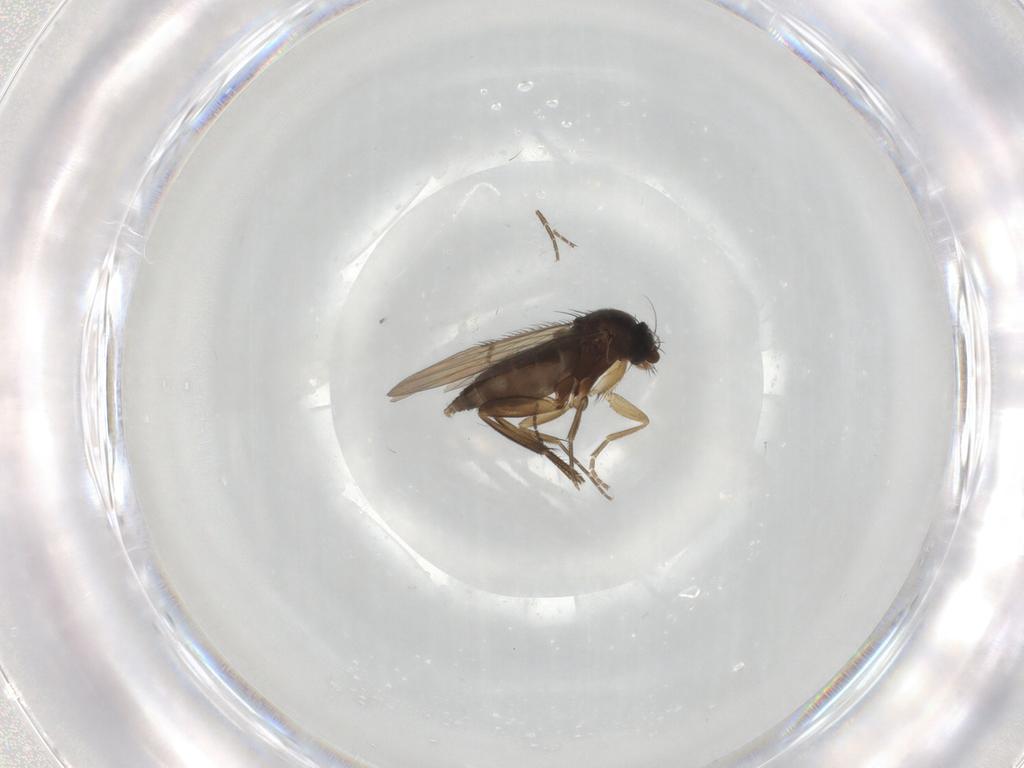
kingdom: Animalia
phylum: Arthropoda
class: Insecta
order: Diptera
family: Phoridae
